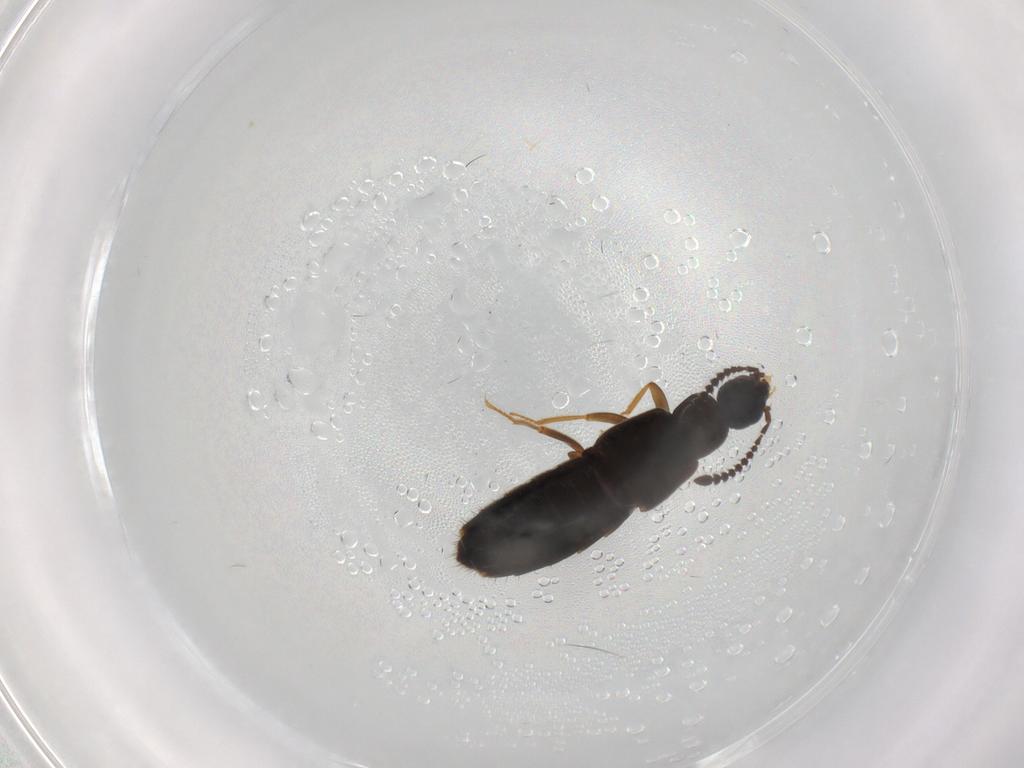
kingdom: Animalia
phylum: Arthropoda
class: Insecta
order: Coleoptera
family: Staphylinidae
